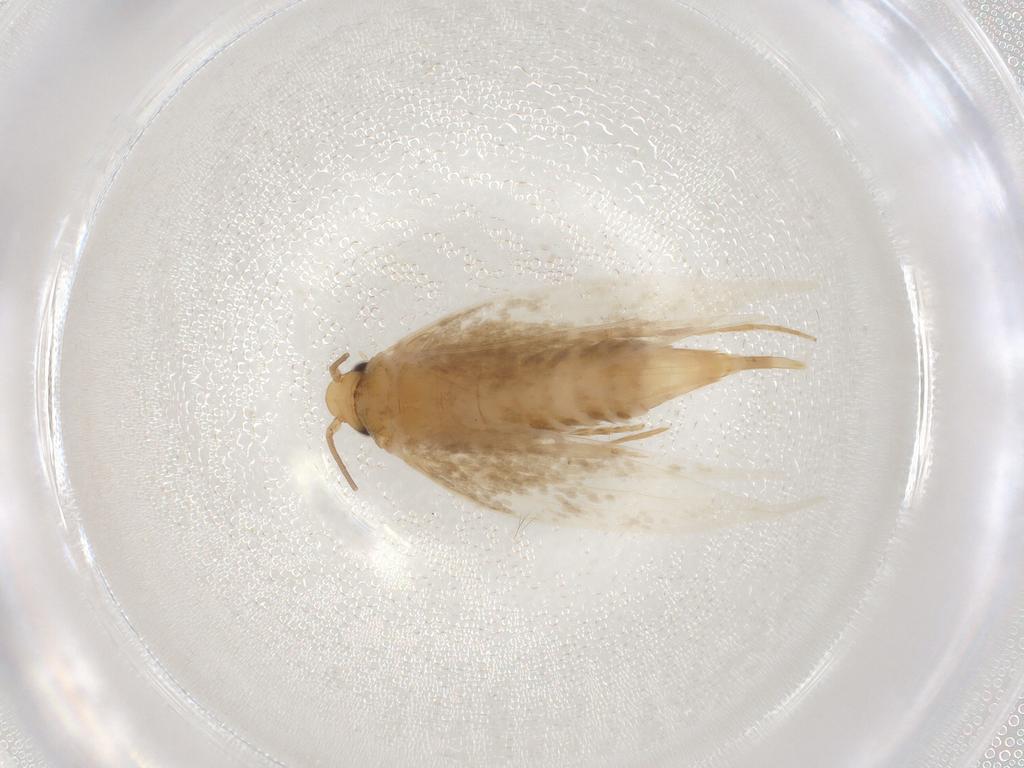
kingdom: Animalia
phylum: Arthropoda
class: Insecta
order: Lepidoptera
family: Tineidae
